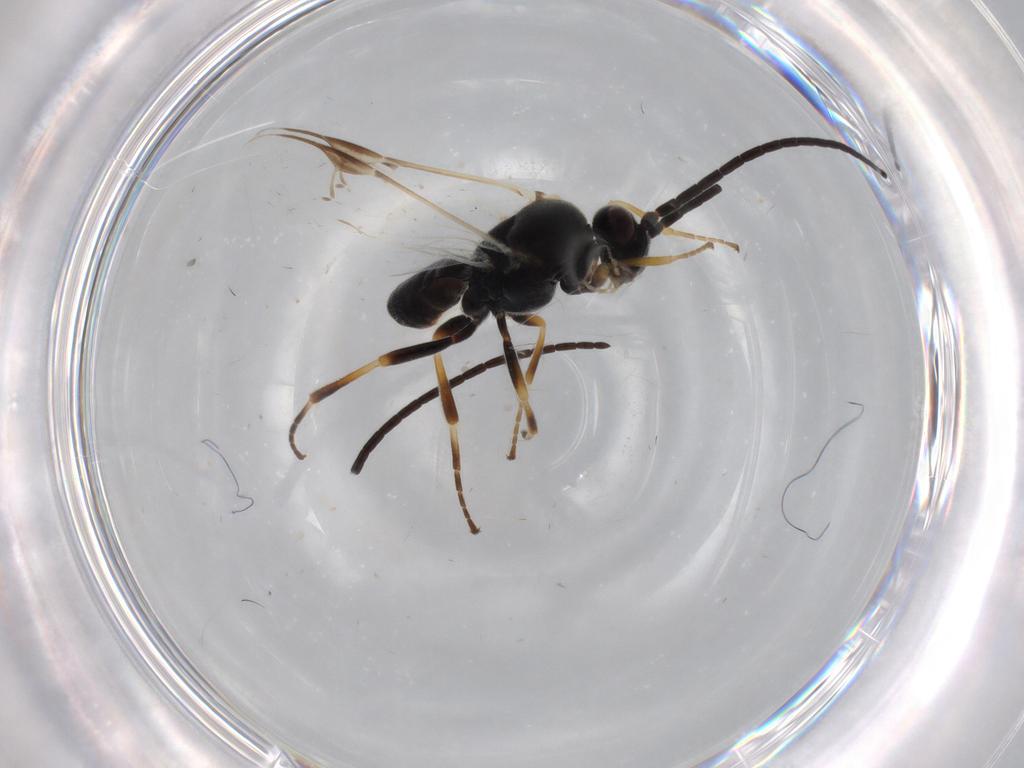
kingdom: Animalia
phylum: Arthropoda
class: Insecta
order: Hymenoptera
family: Braconidae
